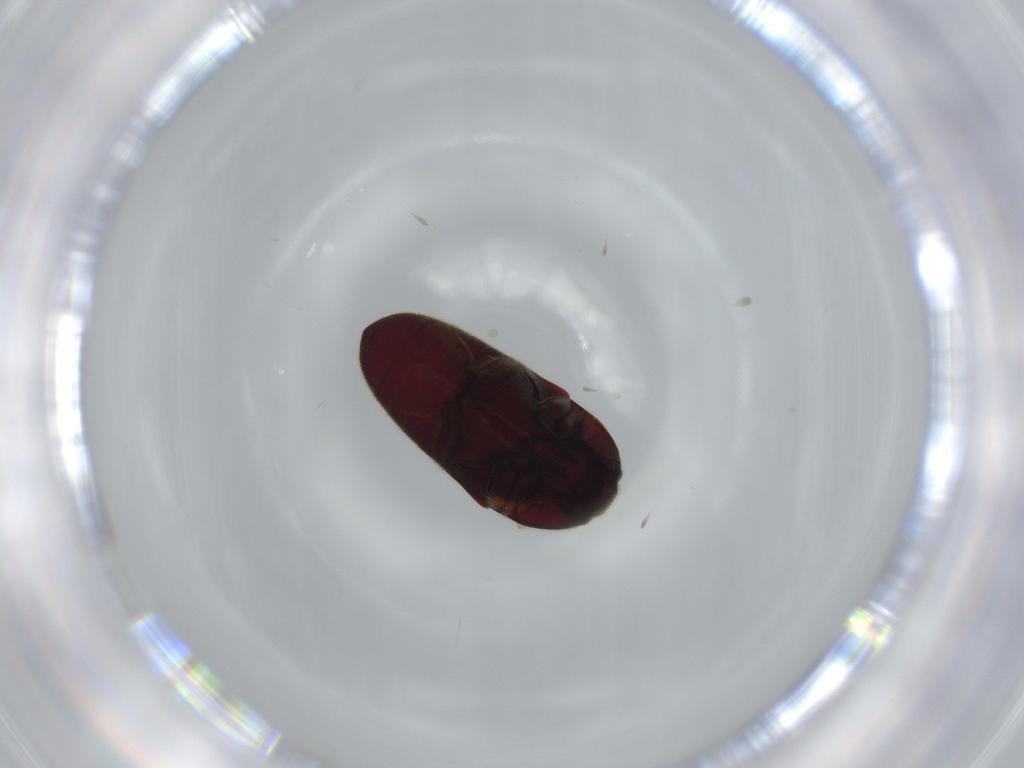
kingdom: Animalia
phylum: Arthropoda
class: Insecta
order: Coleoptera
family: Throscidae
